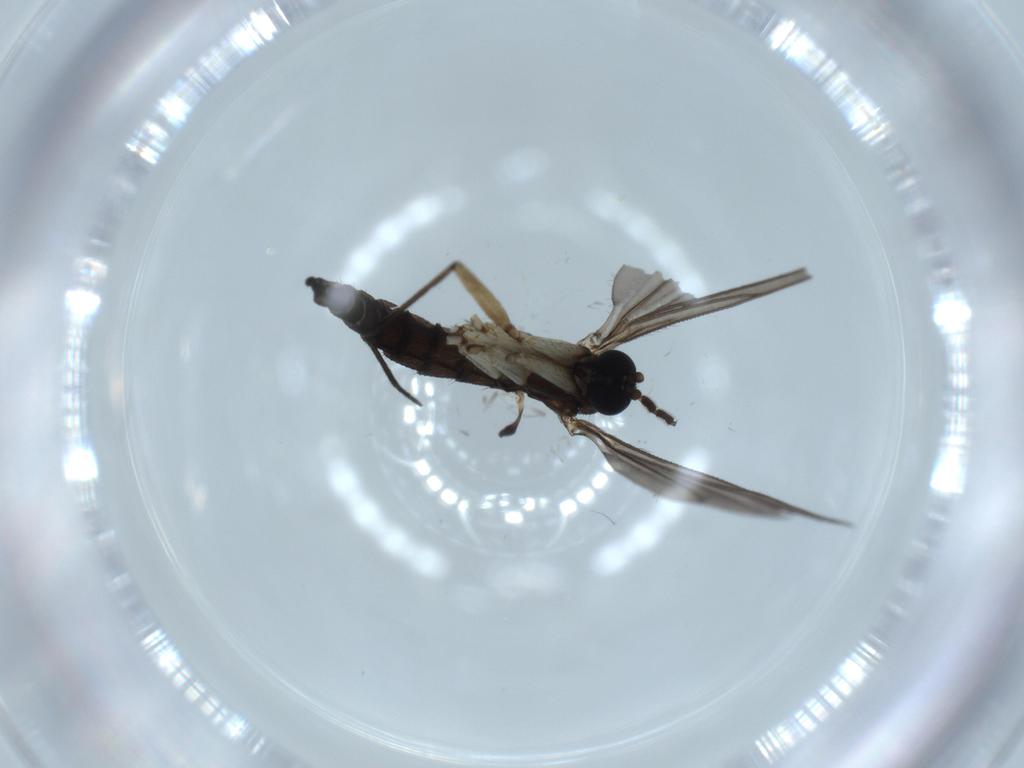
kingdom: Animalia
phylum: Arthropoda
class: Insecta
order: Diptera
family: Sciaridae
